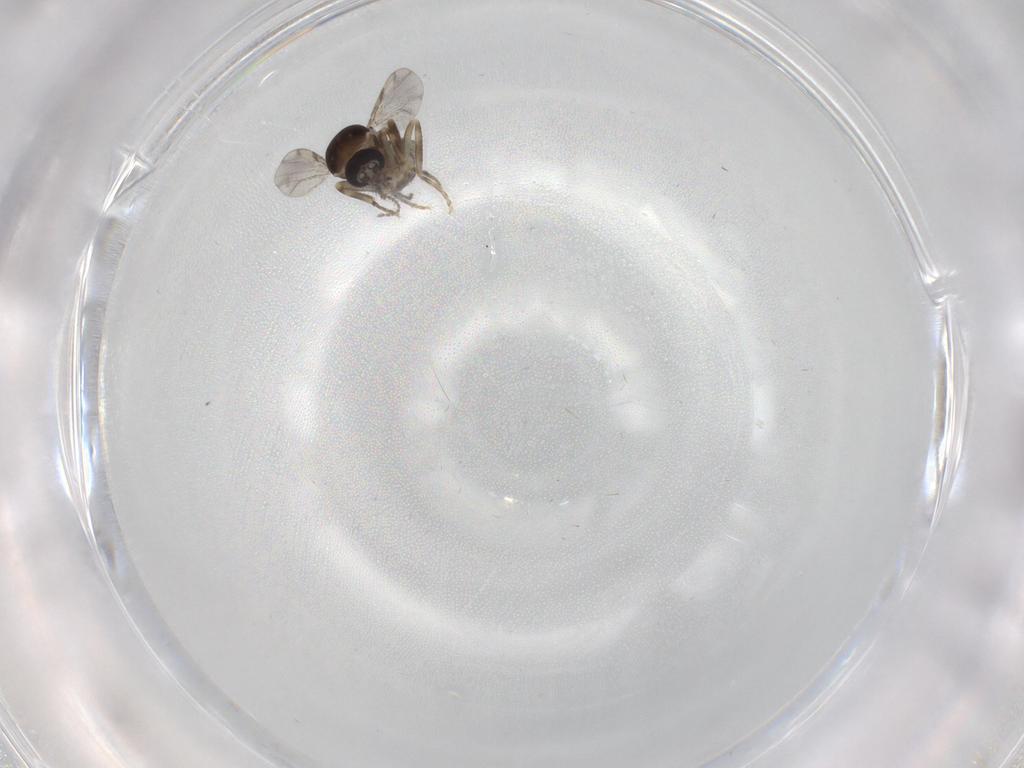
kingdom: Animalia
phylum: Arthropoda
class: Insecta
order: Diptera
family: Ceratopogonidae
